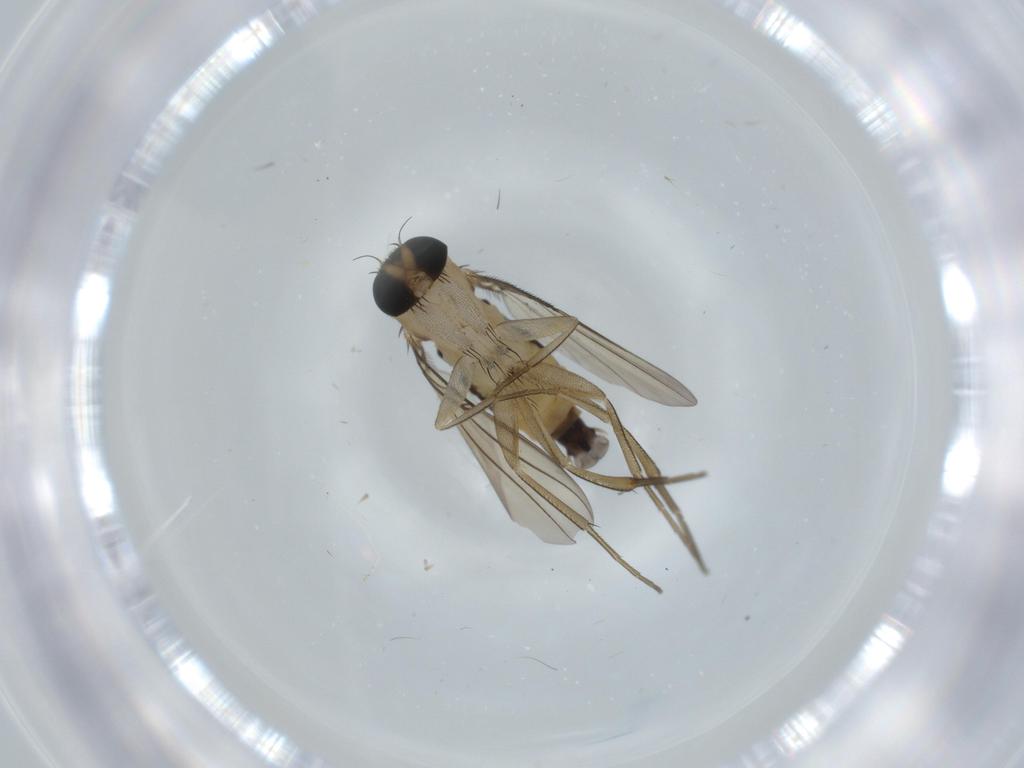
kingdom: Animalia
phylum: Arthropoda
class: Insecta
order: Diptera
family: Phoridae
